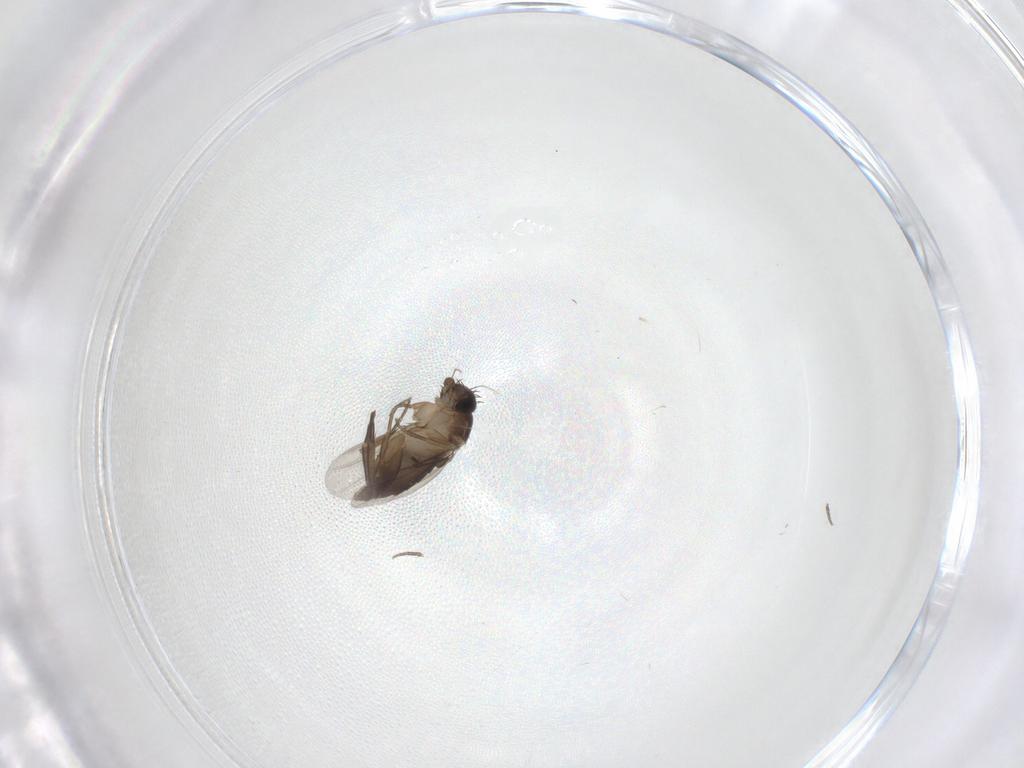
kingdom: Animalia
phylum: Arthropoda
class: Insecta
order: Diptera
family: Phoridae
